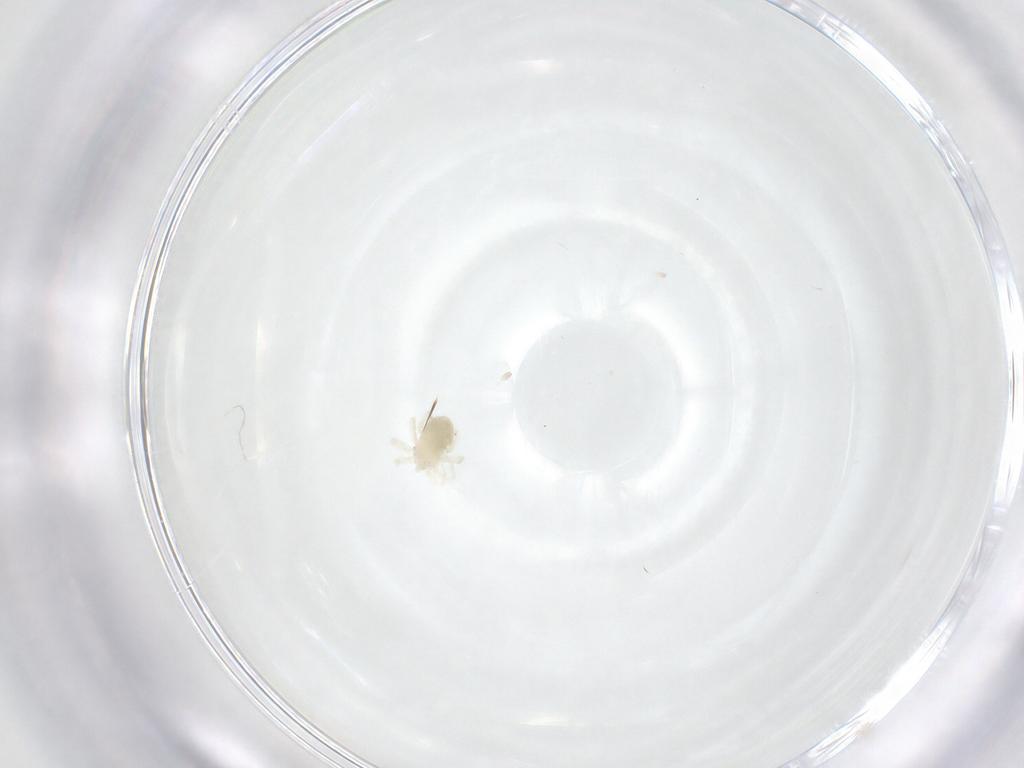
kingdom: Animalia
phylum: Arthropoda
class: Arachnida
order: Trombidiformes
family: Anystidae
